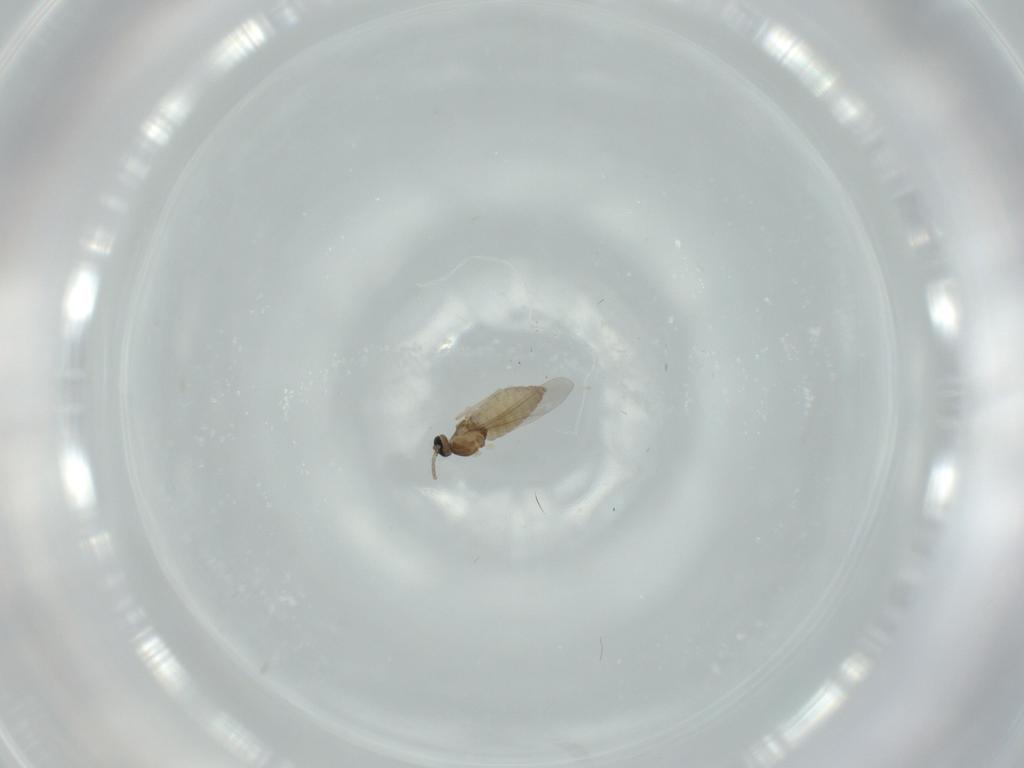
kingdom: Animalia
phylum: Arthropoda
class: Insecta
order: Diptera
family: Cecidomyiidae
